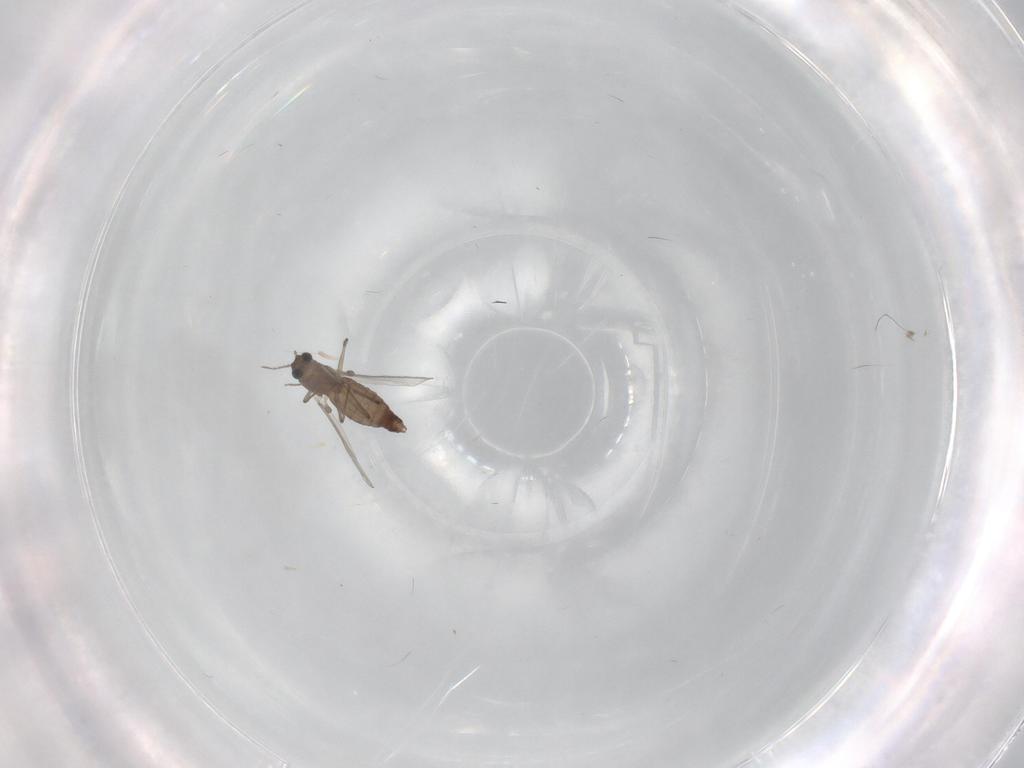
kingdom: Animalia
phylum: Arthropoda
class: Insecta
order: Diptera
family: Chironomidae
